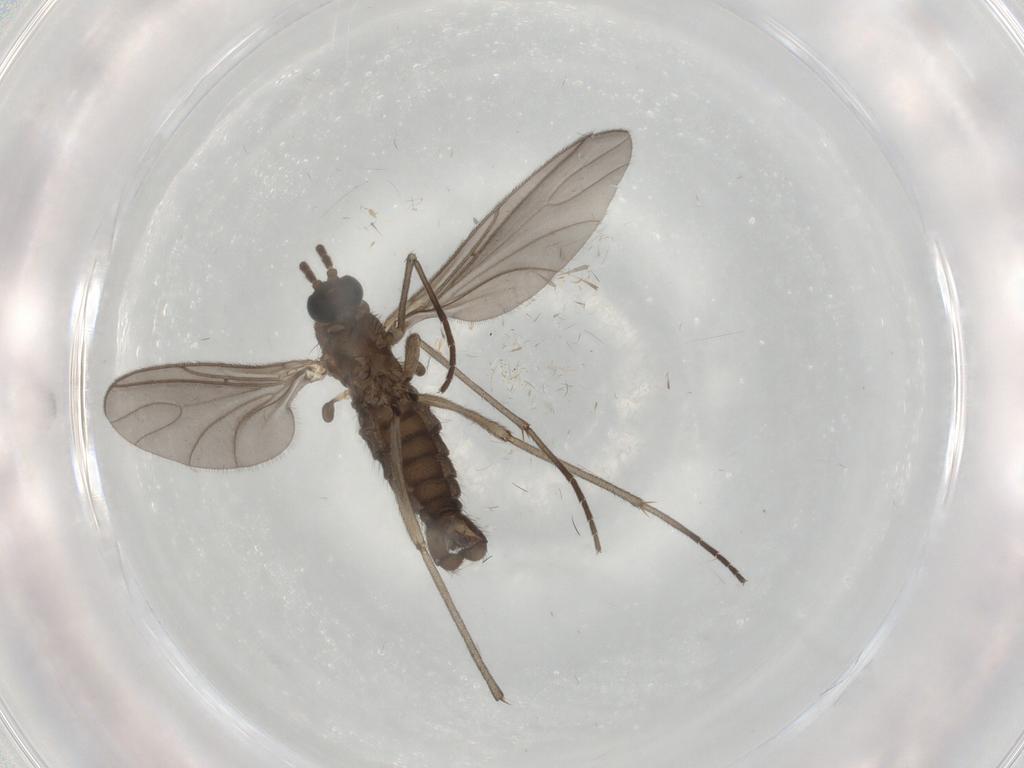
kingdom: Animalia
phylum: Arthropoda
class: Insecta
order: Diptera
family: Sciaridae
